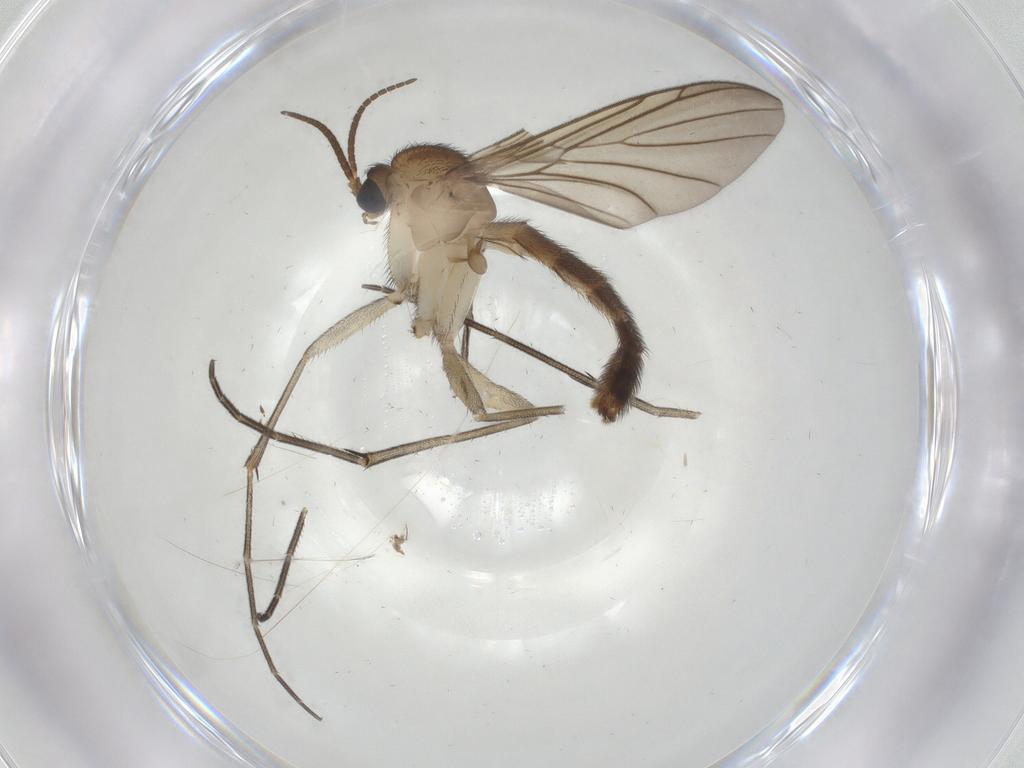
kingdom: Animalia
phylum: Arthropoda
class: Insecta
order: Diptera
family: Keroplatidae
